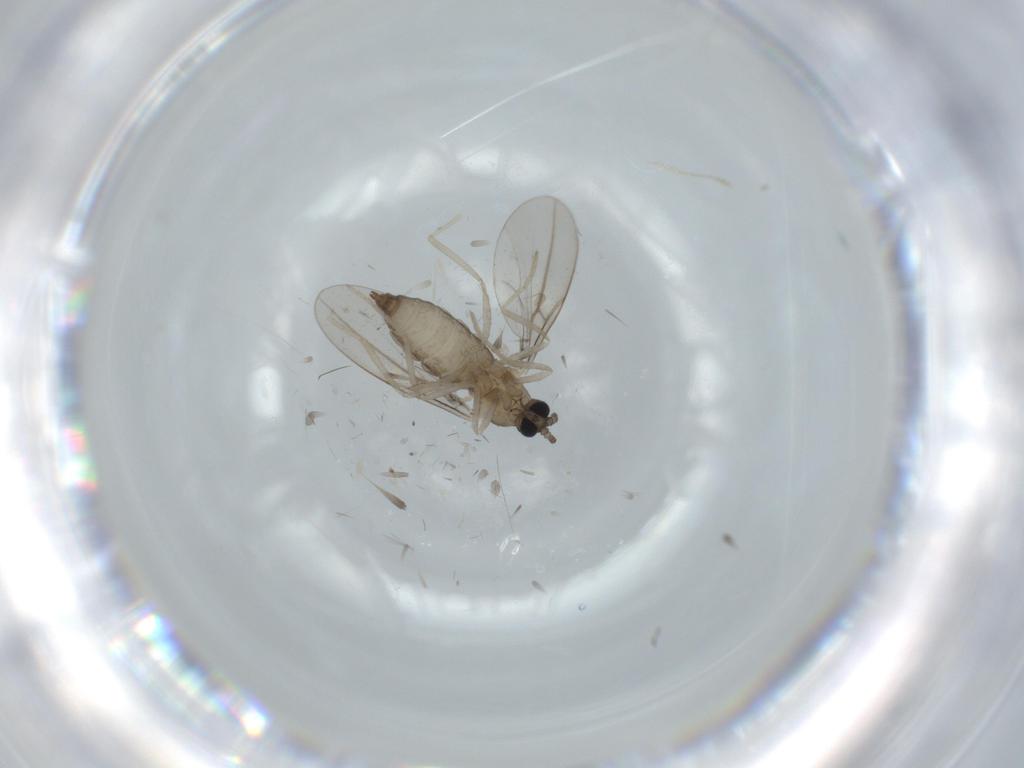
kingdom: Animalia
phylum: Arthropoda
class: Insecta
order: Diptera
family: Cecidomyiidae
